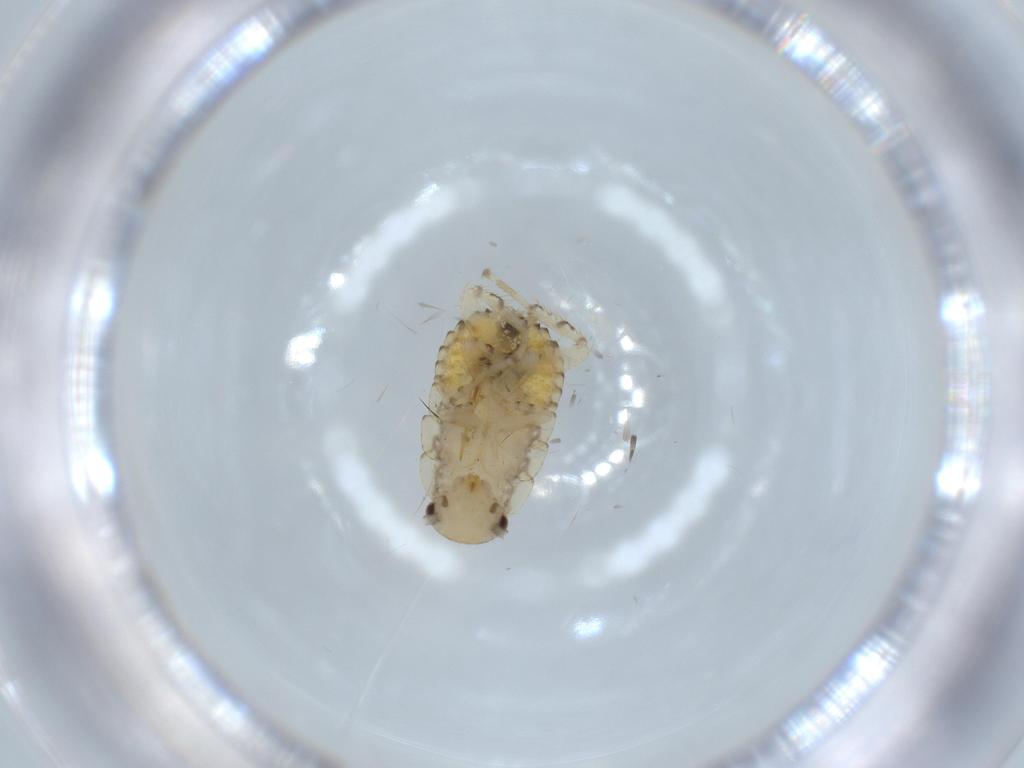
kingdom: Animalia
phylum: Arthropoda
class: Insecta
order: Blattodea
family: Ectobiidae
